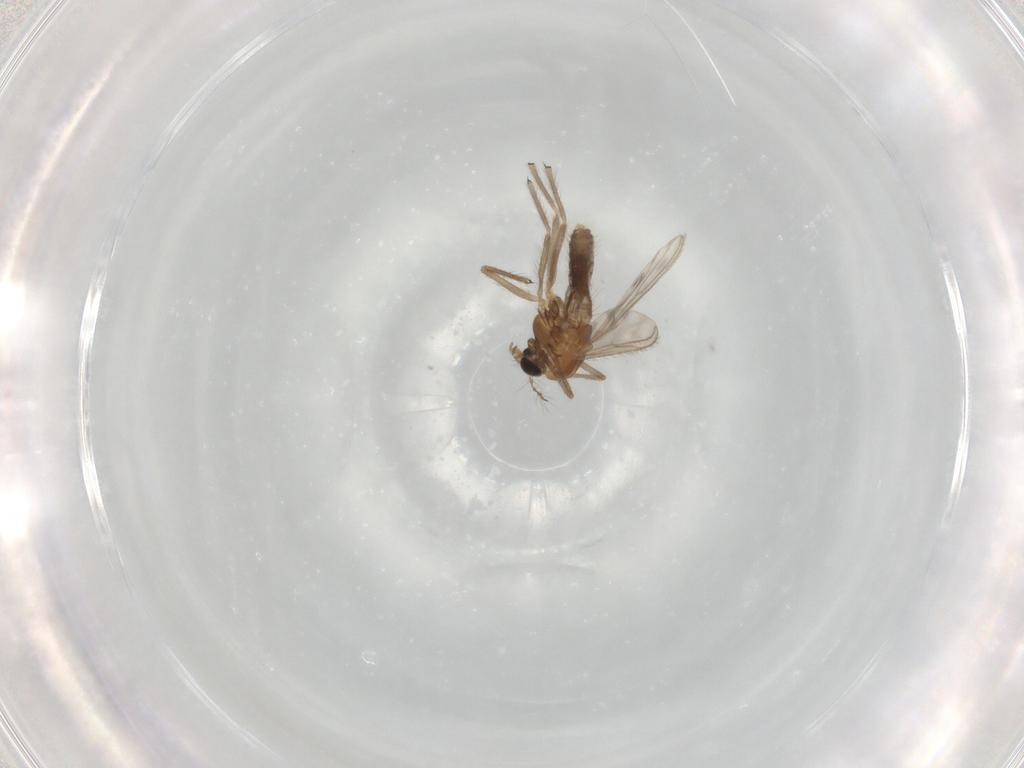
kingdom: Animalia
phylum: Arthropoda
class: Insecta
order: Diptera
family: Chironomidae
